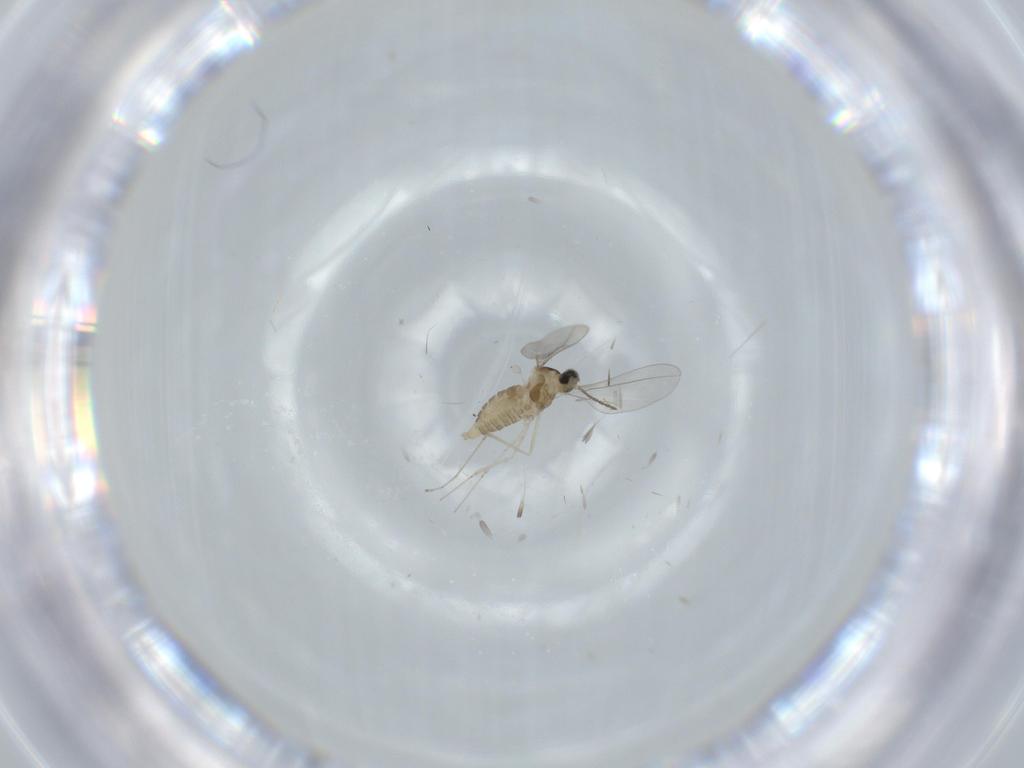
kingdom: Animalia
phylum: Arthropoda
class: Insecta
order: Diptera
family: Cecidomyiidae
